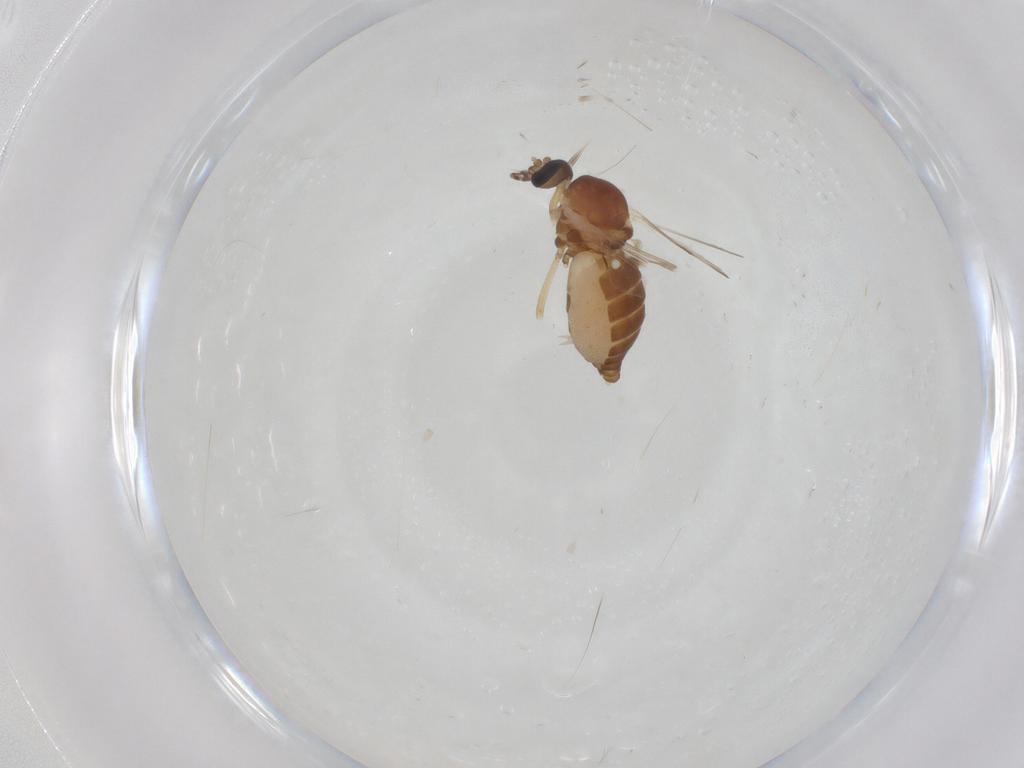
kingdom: Animalia
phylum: Arthropoda
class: Insecta
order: Diptera
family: Ceratopogonidae
